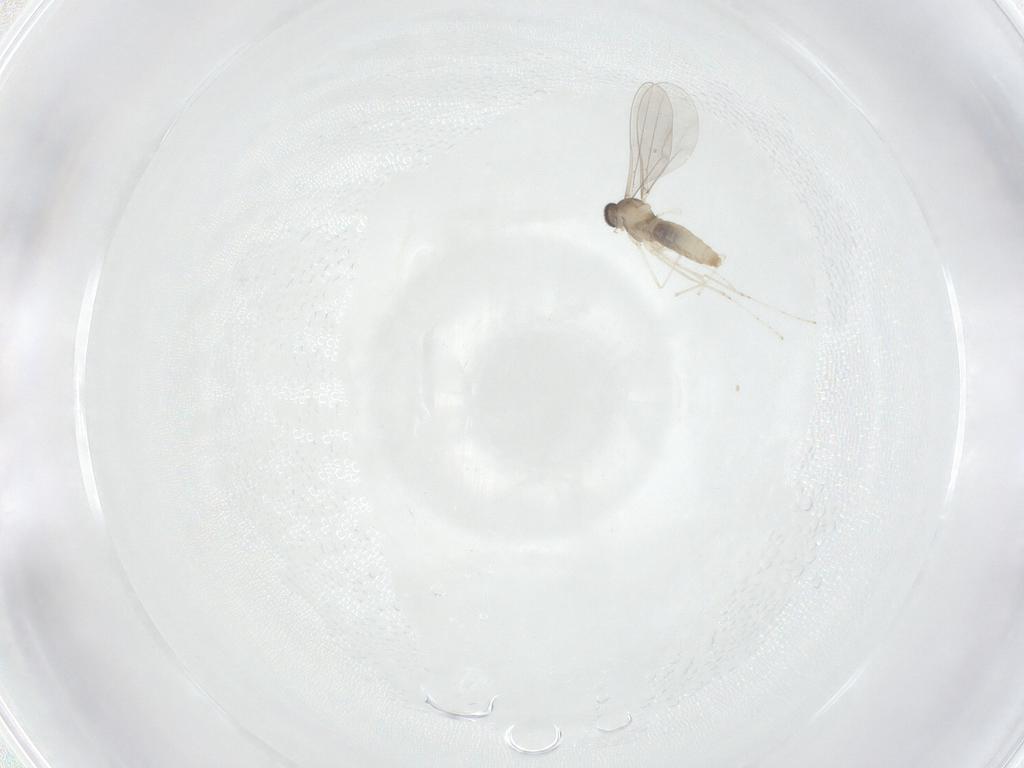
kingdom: Animalia
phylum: Arthropoda
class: Insecta
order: Diptera
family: Cecidomyiidae
